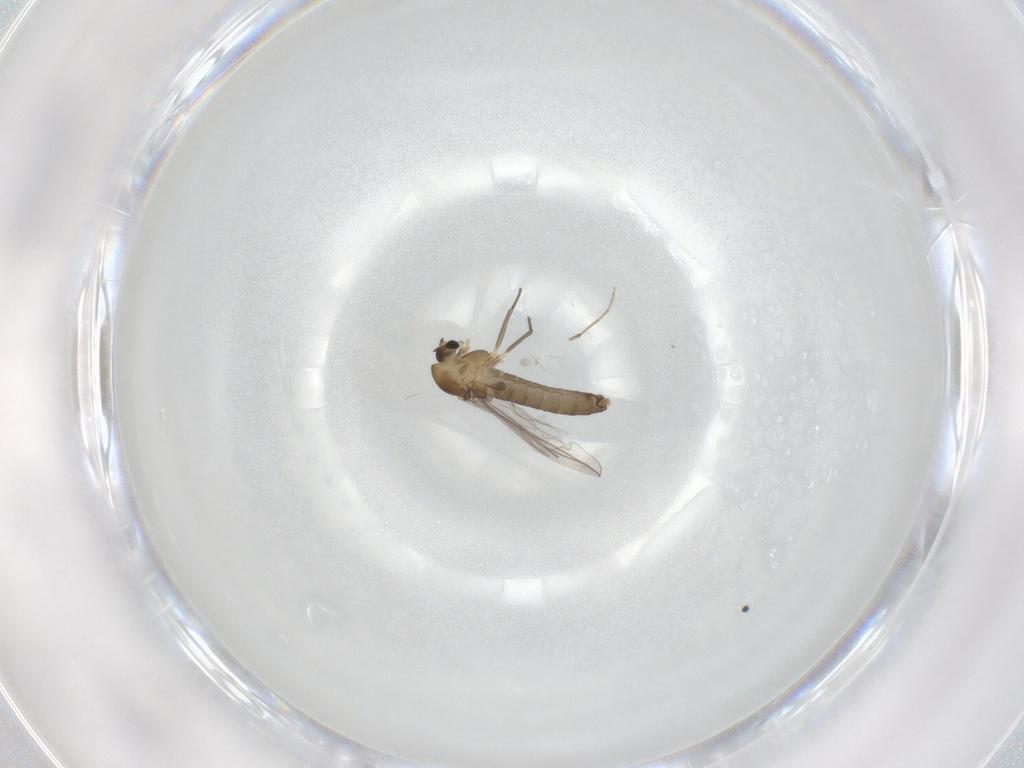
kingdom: Animalia
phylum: Arthropoda
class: Insecta
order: Diptera
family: Chironomidae
